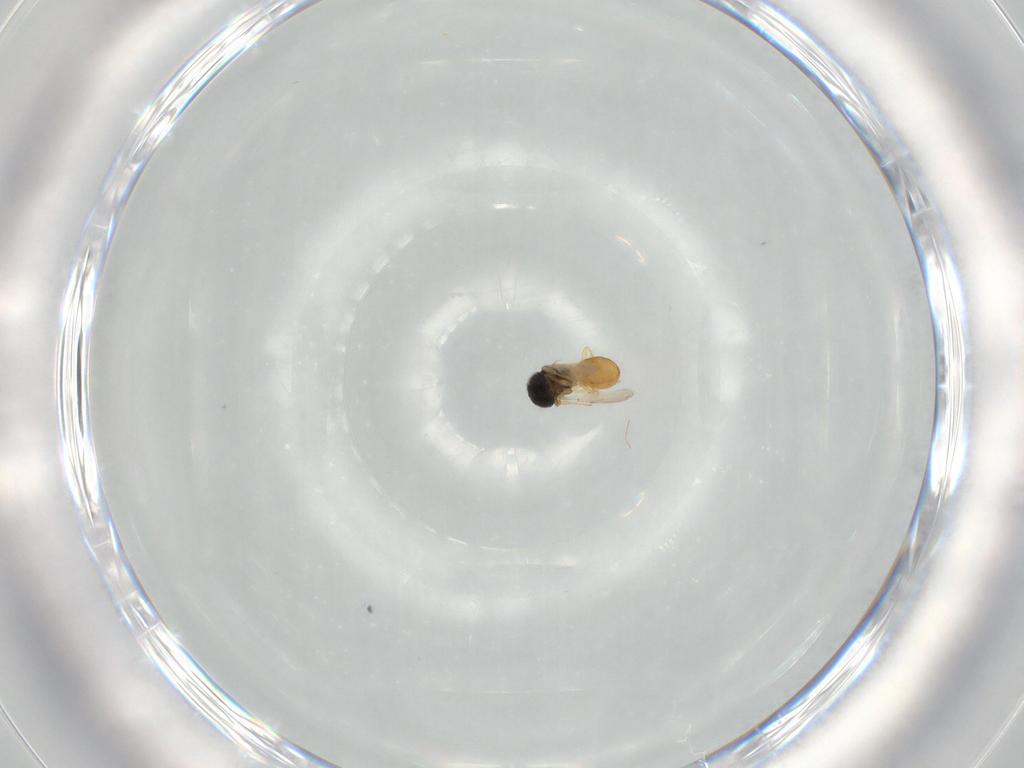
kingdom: Animalia
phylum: Arthropoda
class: Insecta
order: Hymenoptera
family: Scelionidae
